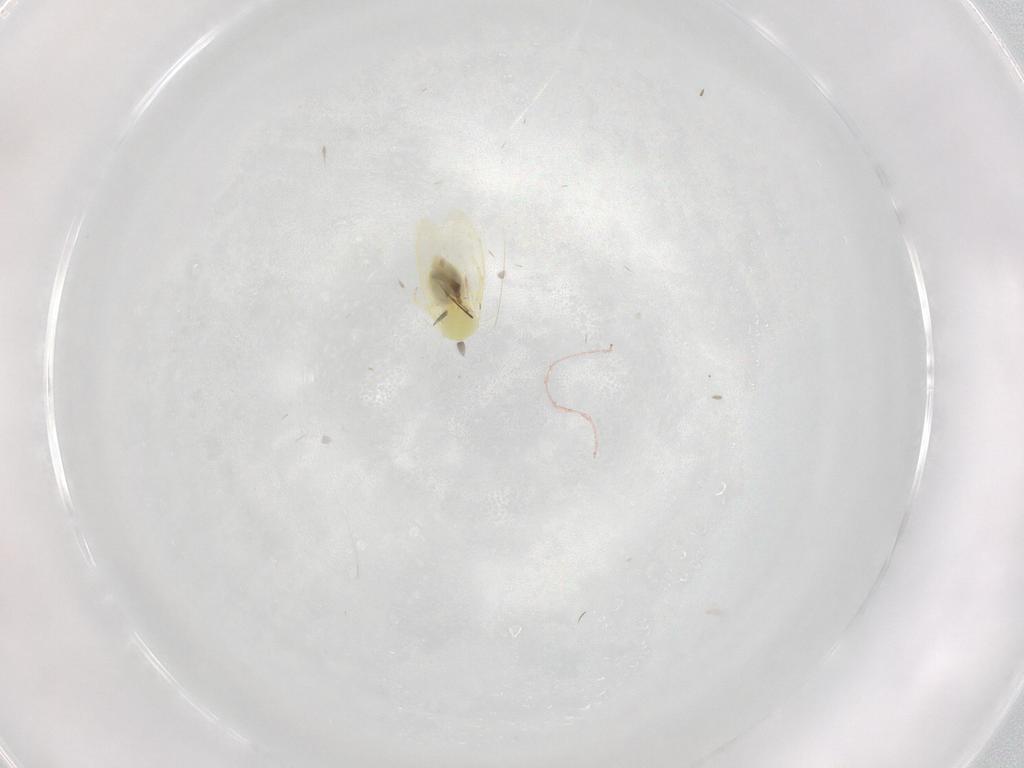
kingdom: Animalia
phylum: Arthropoda
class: Insecta
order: Hemiptera
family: Aleyrodidae
